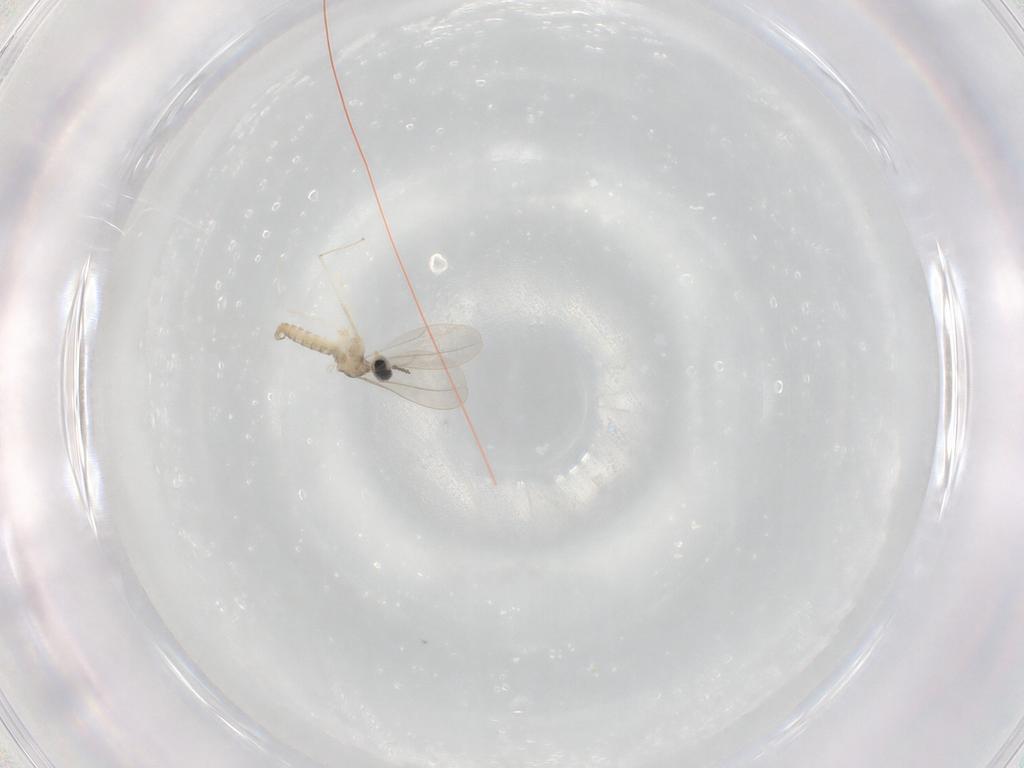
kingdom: Animalia
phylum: Arthropoda
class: Insecta
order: Diptera
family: Cecidomyiidae
